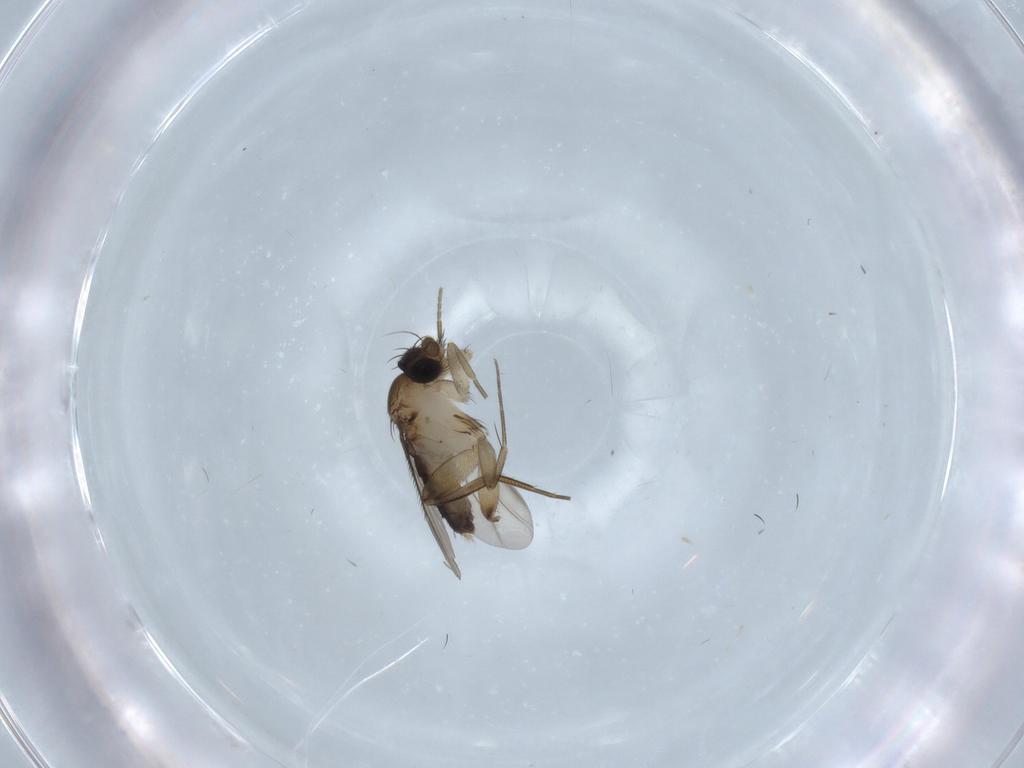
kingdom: Animalia
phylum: Arthropoda
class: Insecta
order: Diptera
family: Phoridae
